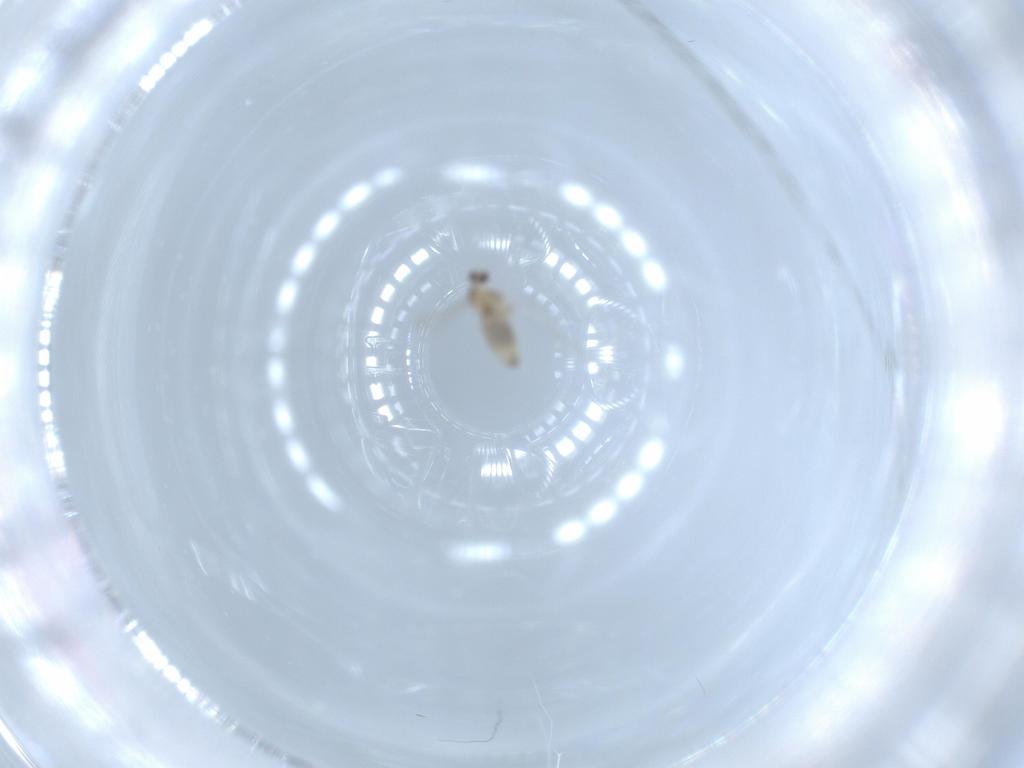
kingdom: Animalia
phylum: Arthropoda
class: Insecta
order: Diptera
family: Cecidomyiidae
